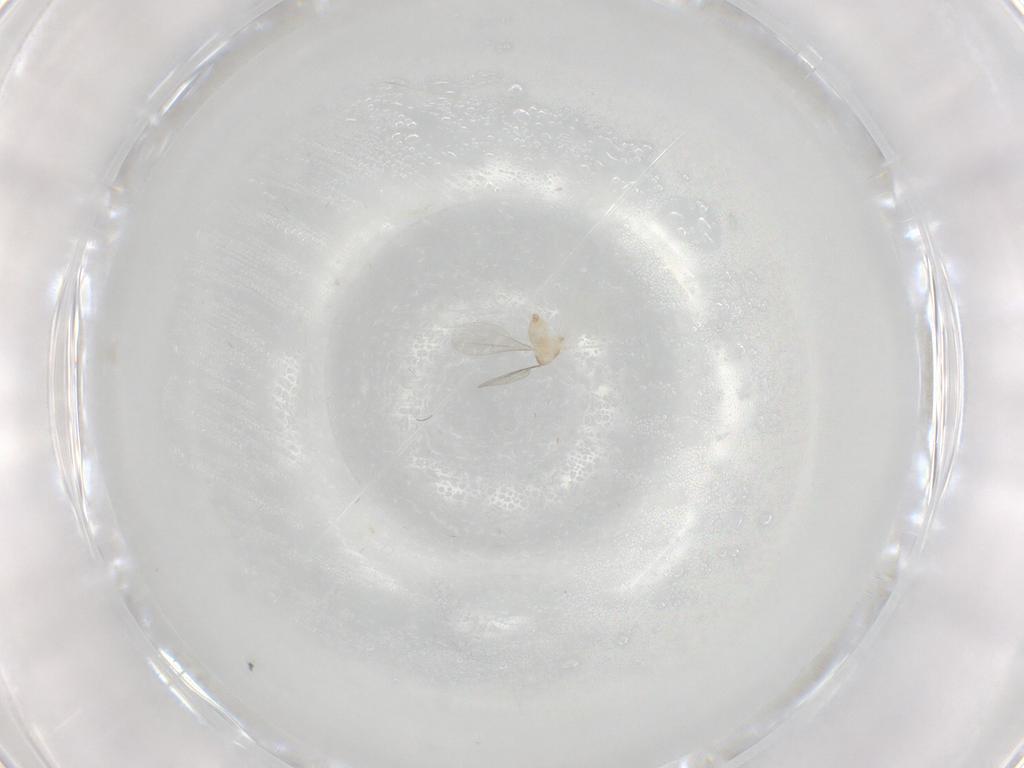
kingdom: Animalia
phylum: Arthropoda
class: Insecta
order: Diptera
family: Cecidomyiidae
